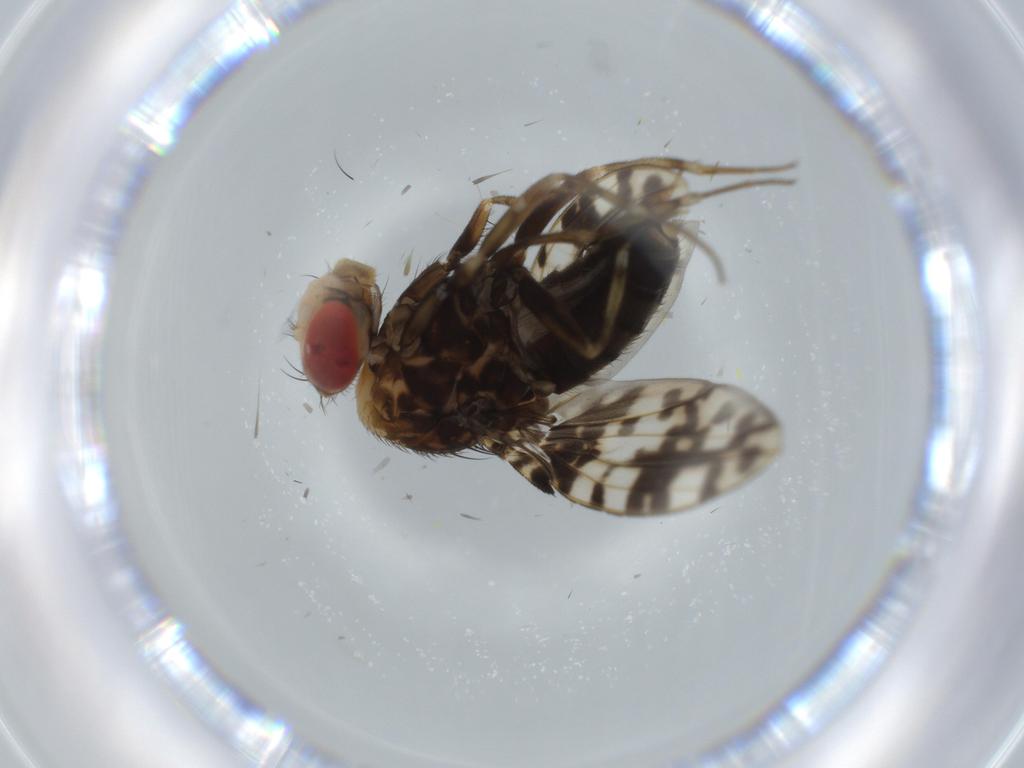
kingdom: Animalia
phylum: Arthropoda
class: Insecta
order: Diptera
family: Drosophilidae
